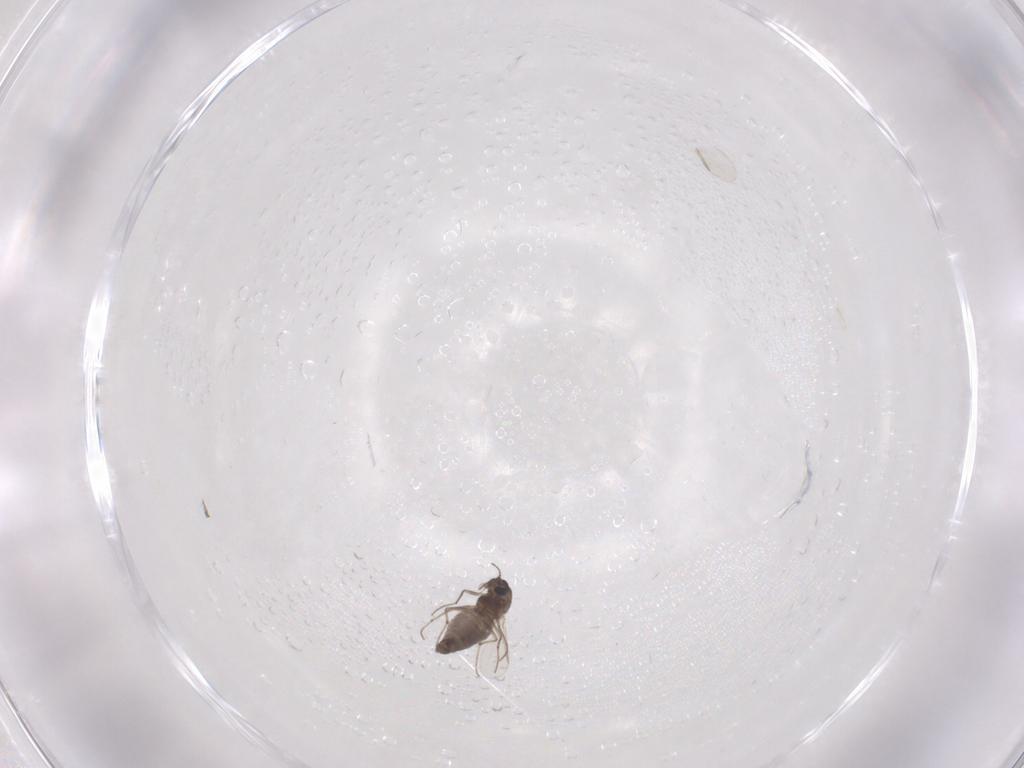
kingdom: Animalia
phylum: Arthropoda
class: Insecta
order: Diptera
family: Chironomidae
